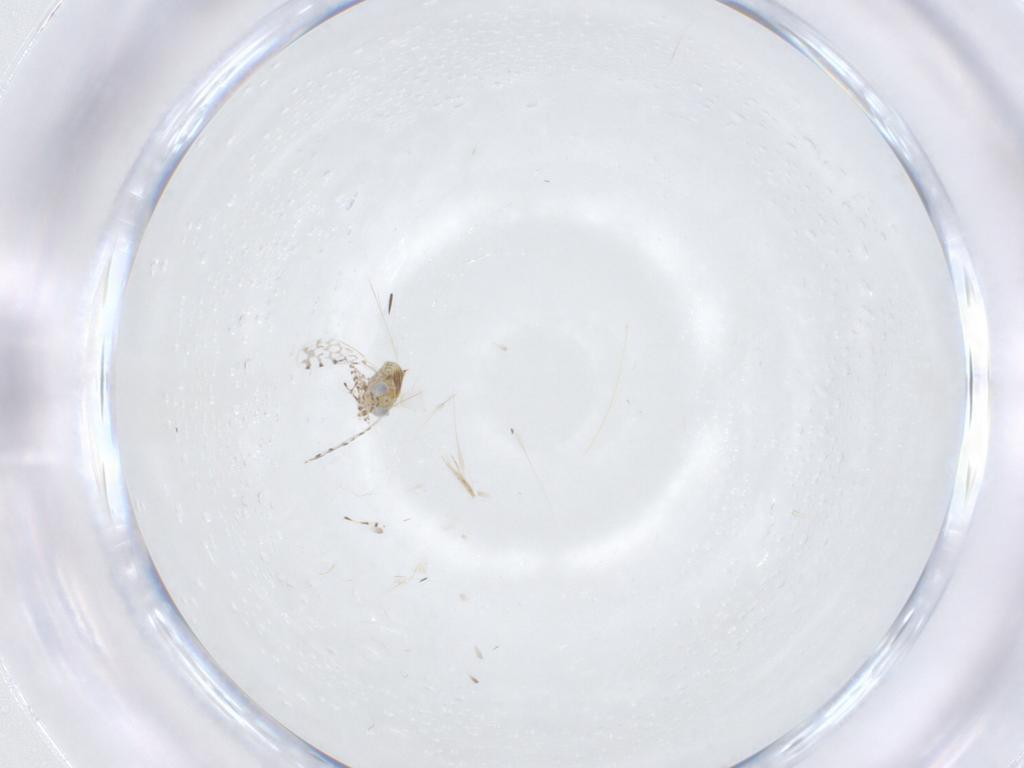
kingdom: Animalia
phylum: Arthropoda
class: Insecta
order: Hymenoptera
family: Aphelinidae
